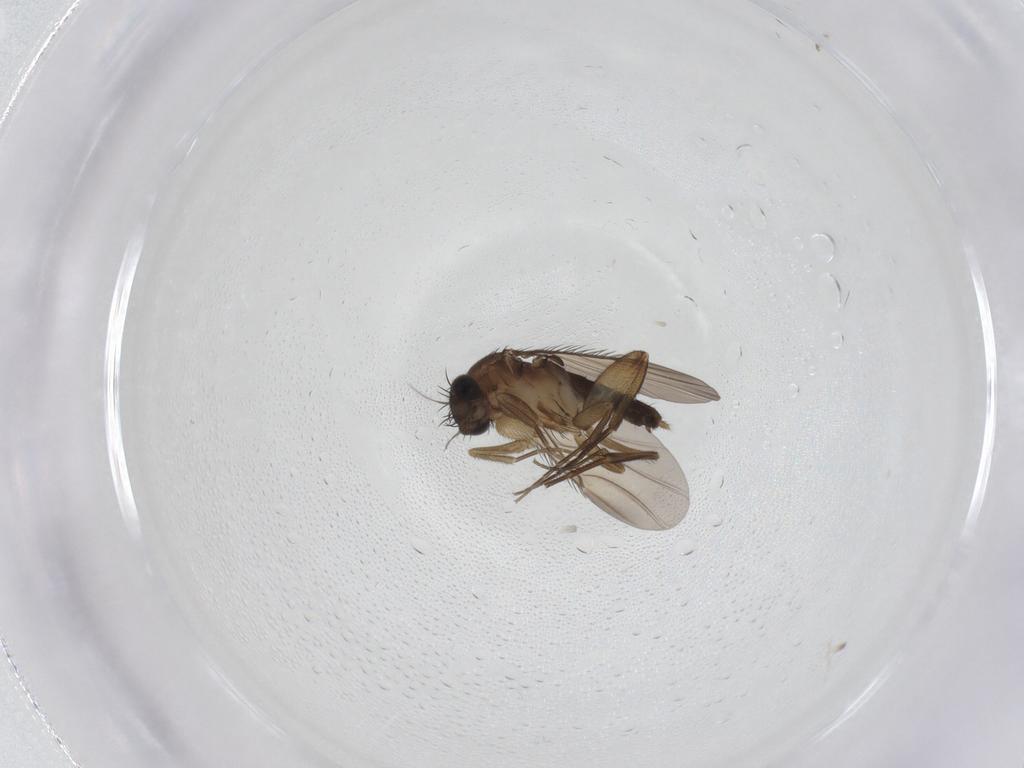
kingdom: Animalia
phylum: Arthropoda
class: Insecta
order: Diptera
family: Phoridae
